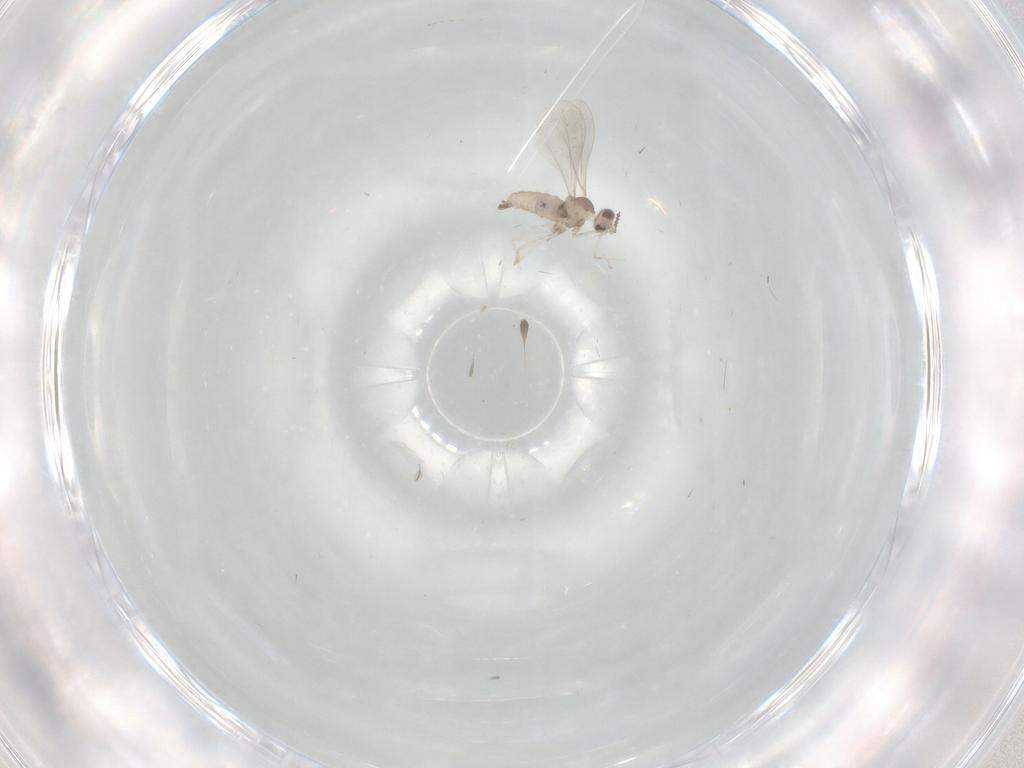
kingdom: Animalia
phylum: Arthropoda
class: Insecta
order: Diptera
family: Cecidomyiidae
